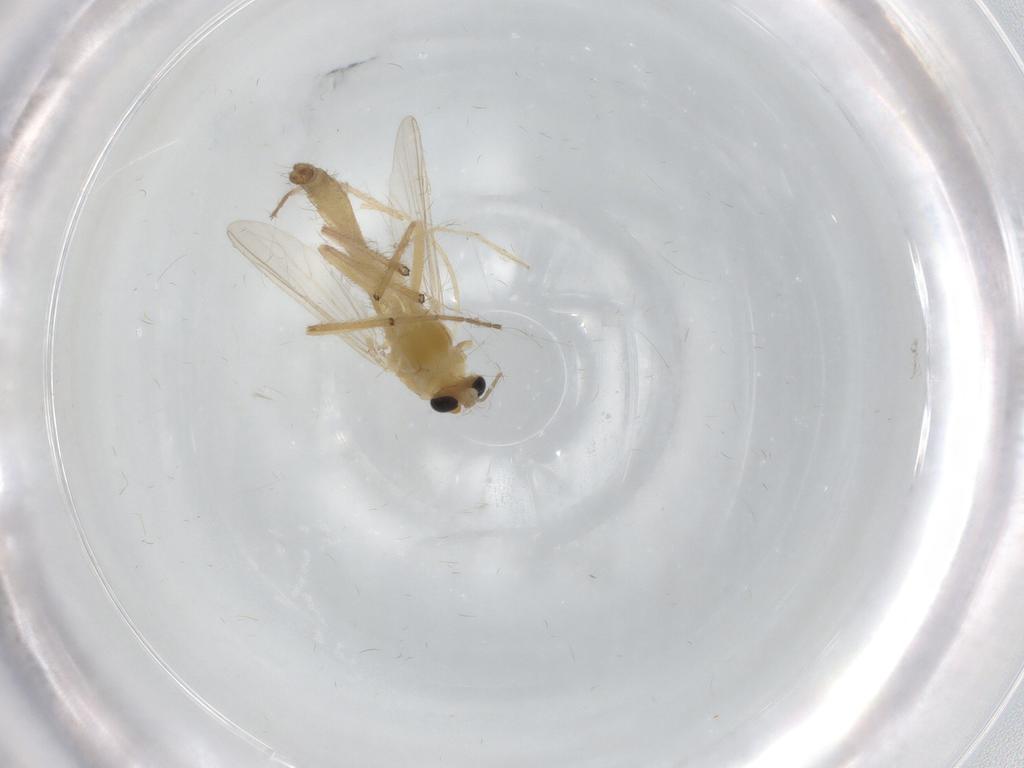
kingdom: Animalia
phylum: Arthropoda
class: Insecta
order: Diptera
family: Chironomidae
